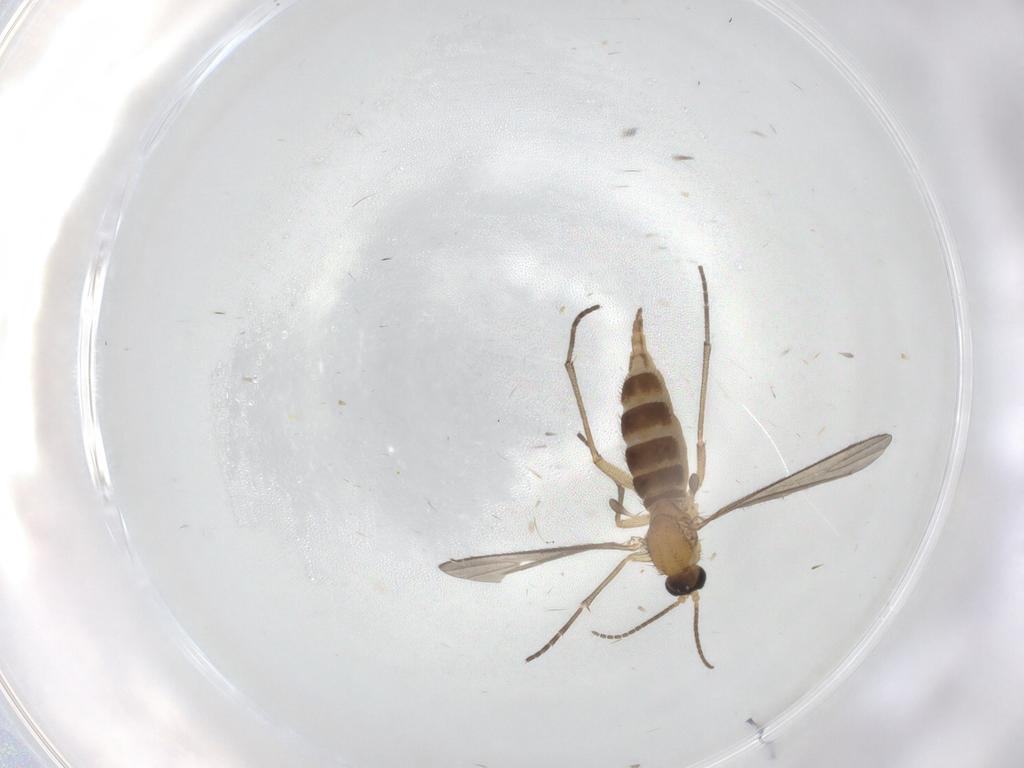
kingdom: Animalia
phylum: Arthropoda
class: Insecta
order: Diptera
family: Sciaridae
